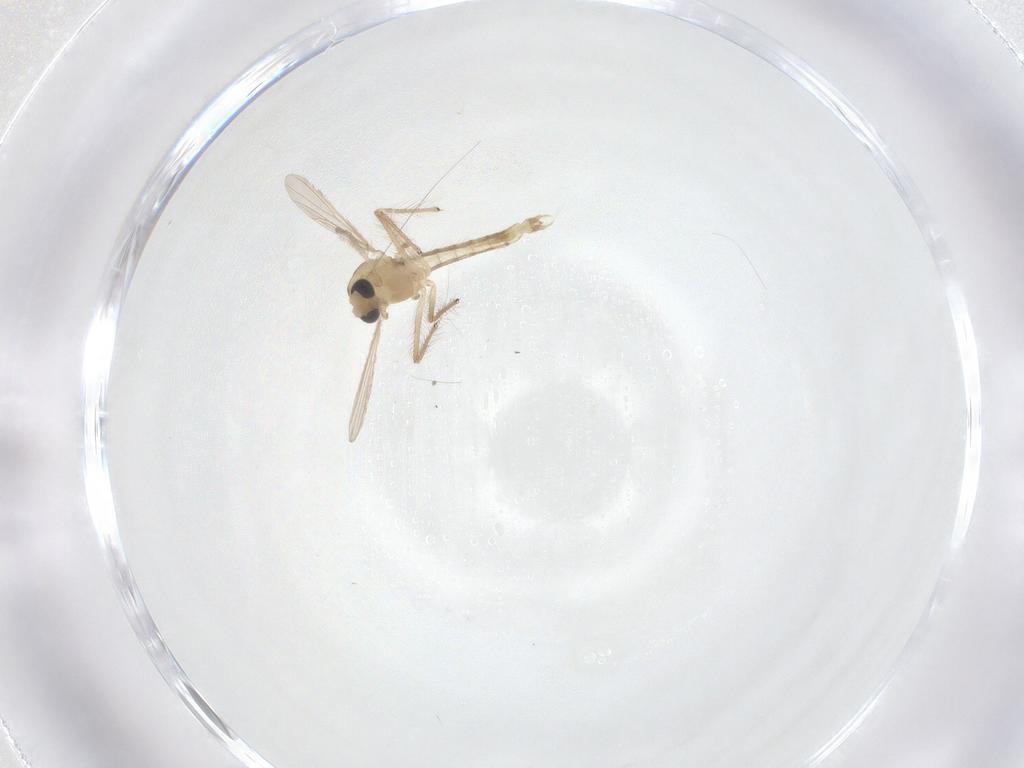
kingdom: Animalia
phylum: Arthropoda
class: Insecta
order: Diptera
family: Chironomidae
